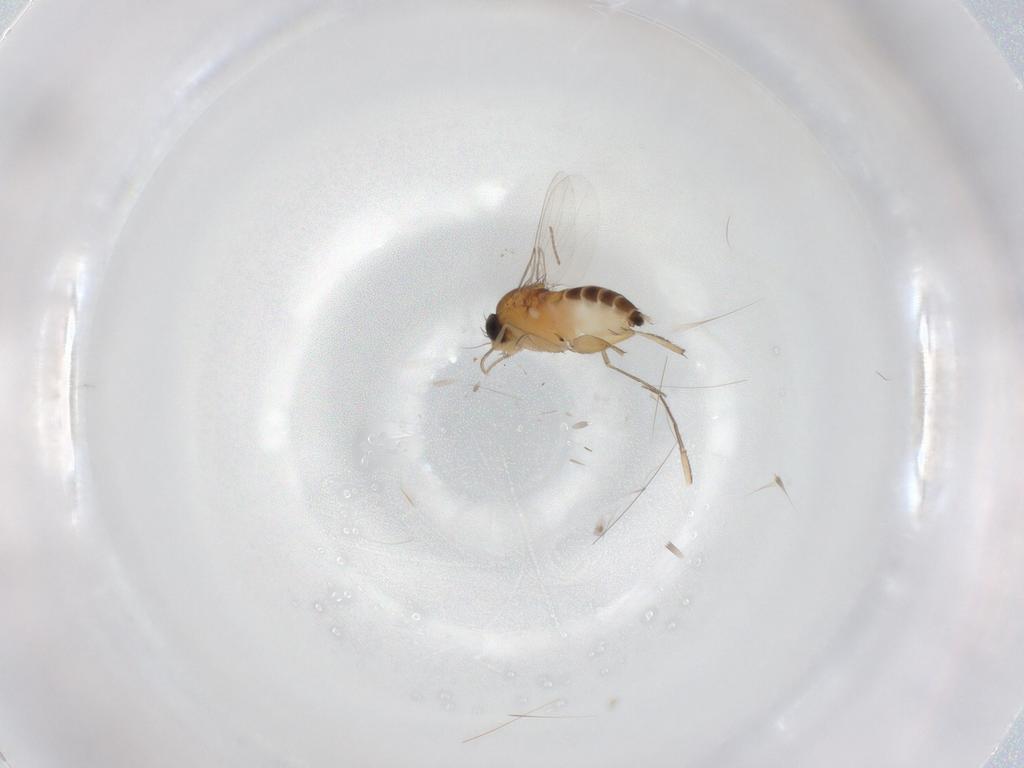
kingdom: Animalia
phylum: Arthropoda
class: Insecta
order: Diptera
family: Phoridae
